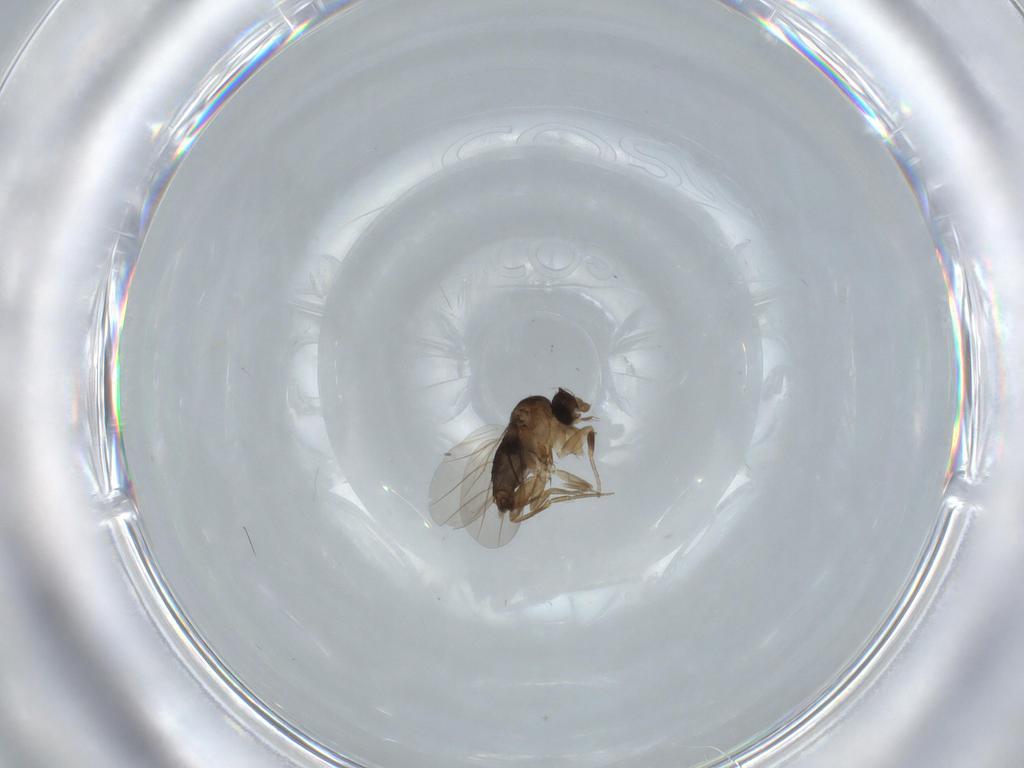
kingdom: Animalia
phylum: Arthropoda
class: Insecta
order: Diptera
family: Phoridae
